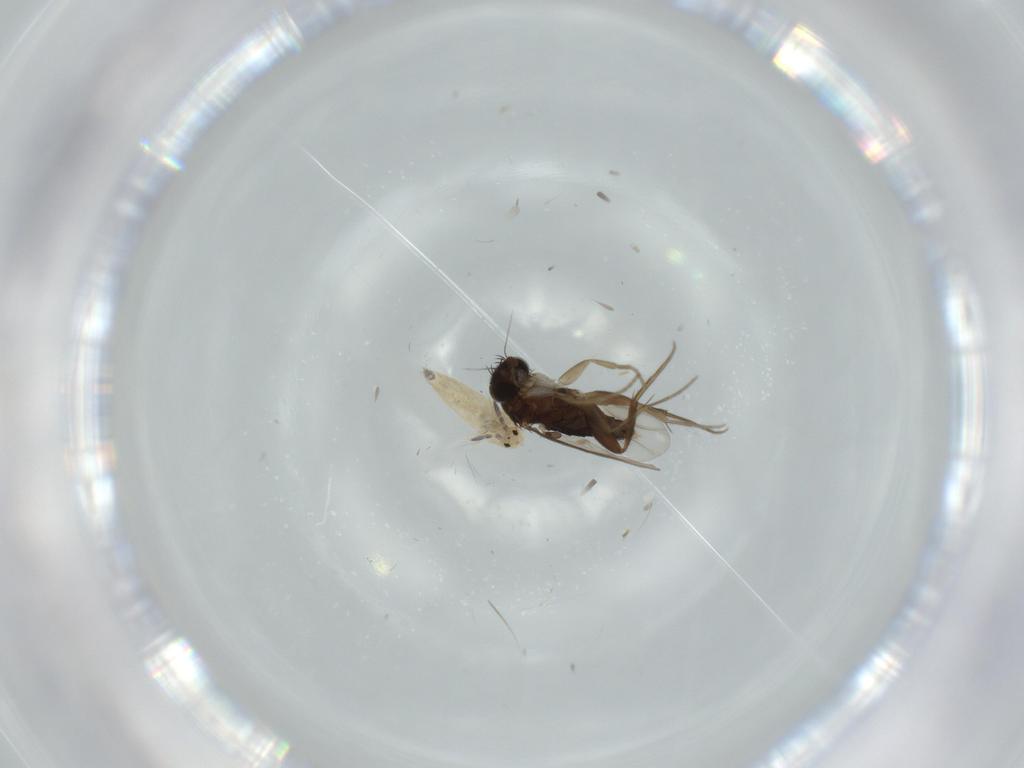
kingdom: Animalia
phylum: Arthropoda
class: Insecta
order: Diptera
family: Phoridae
